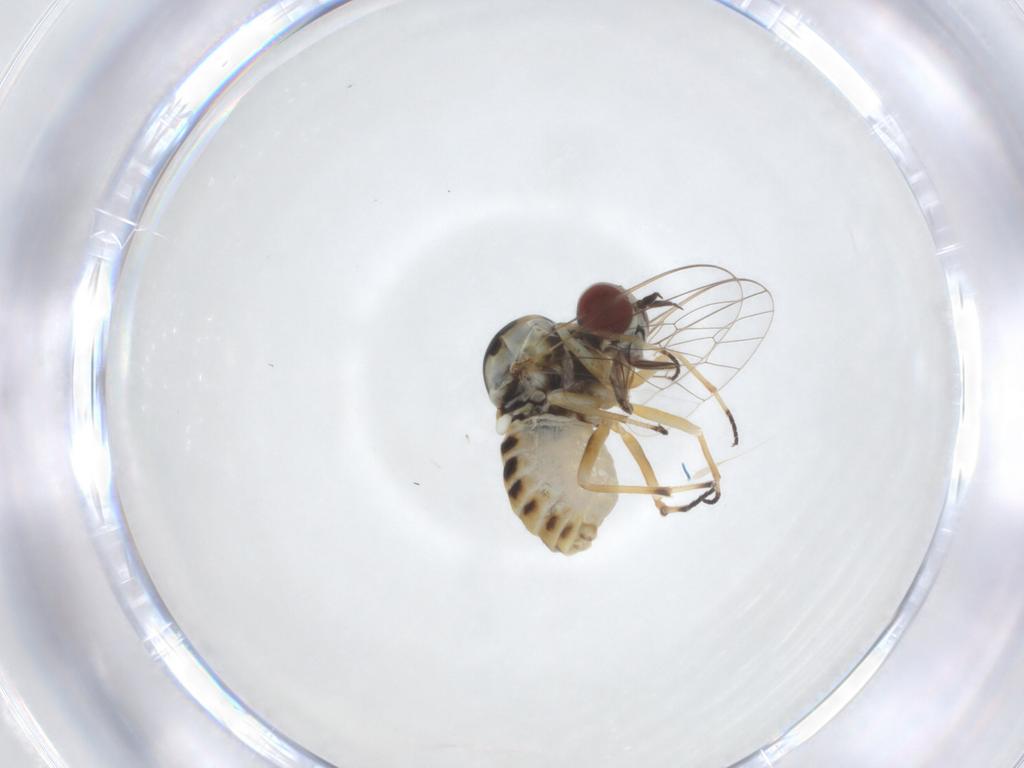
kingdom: Animalia
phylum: Arthropoda
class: Insecta
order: Diptera
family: Mythicomyiidae
